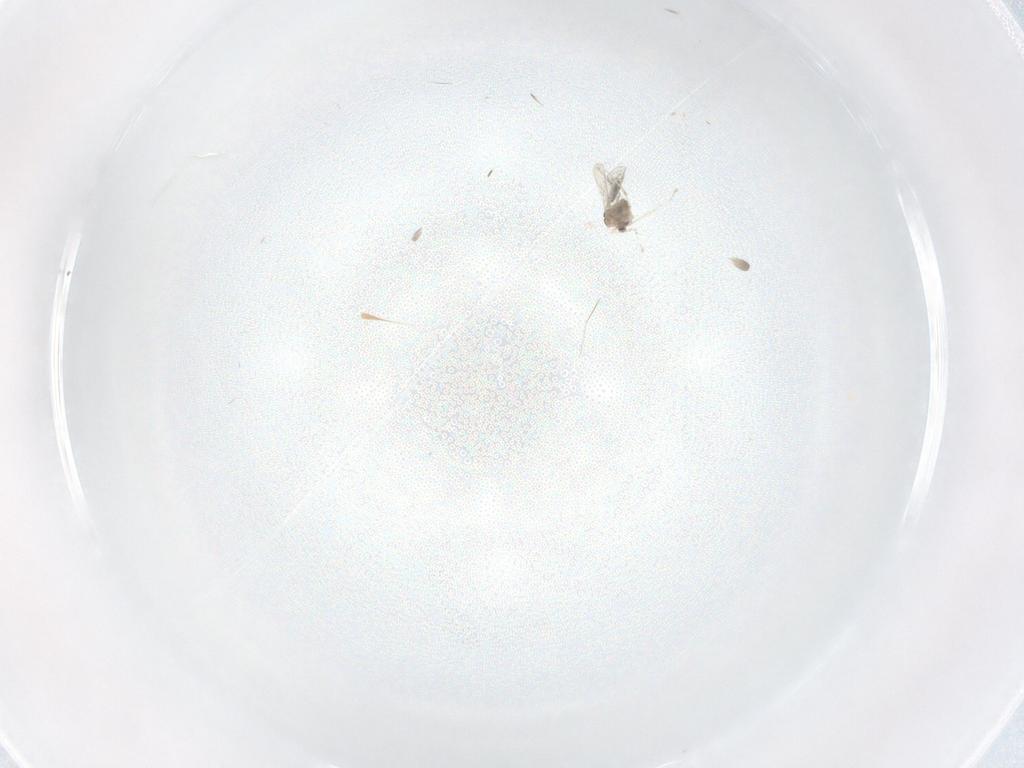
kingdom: Animalia
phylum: Arthropoda
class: Insecta
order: Diptera
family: Cecidomyiidae
